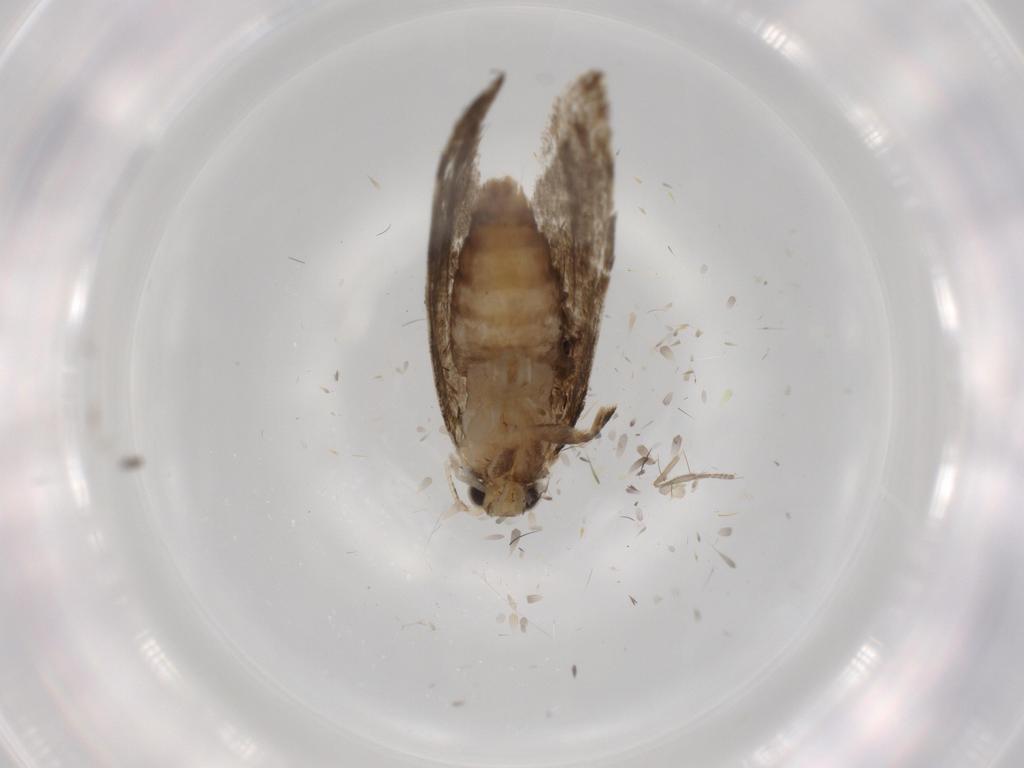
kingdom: Animalia
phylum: Arthropoda
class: Insecta
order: Lepidoptera
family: Tineidae
